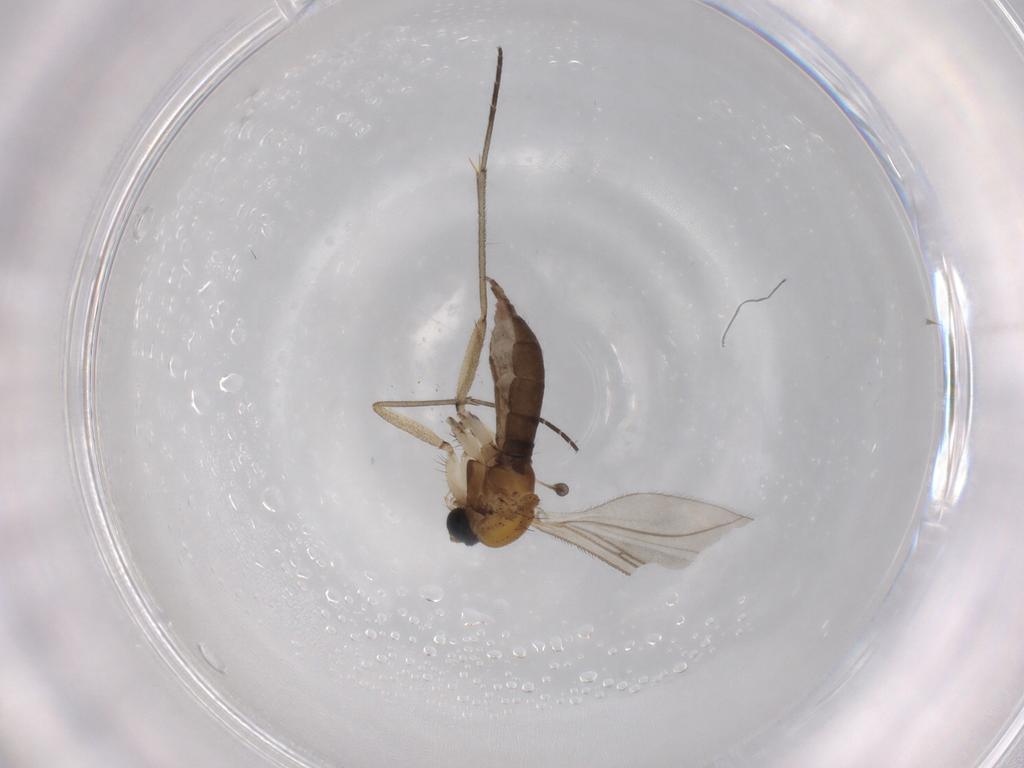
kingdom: Animalia
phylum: Arthropoda
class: Insecta
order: Diptera
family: Sciaridae
